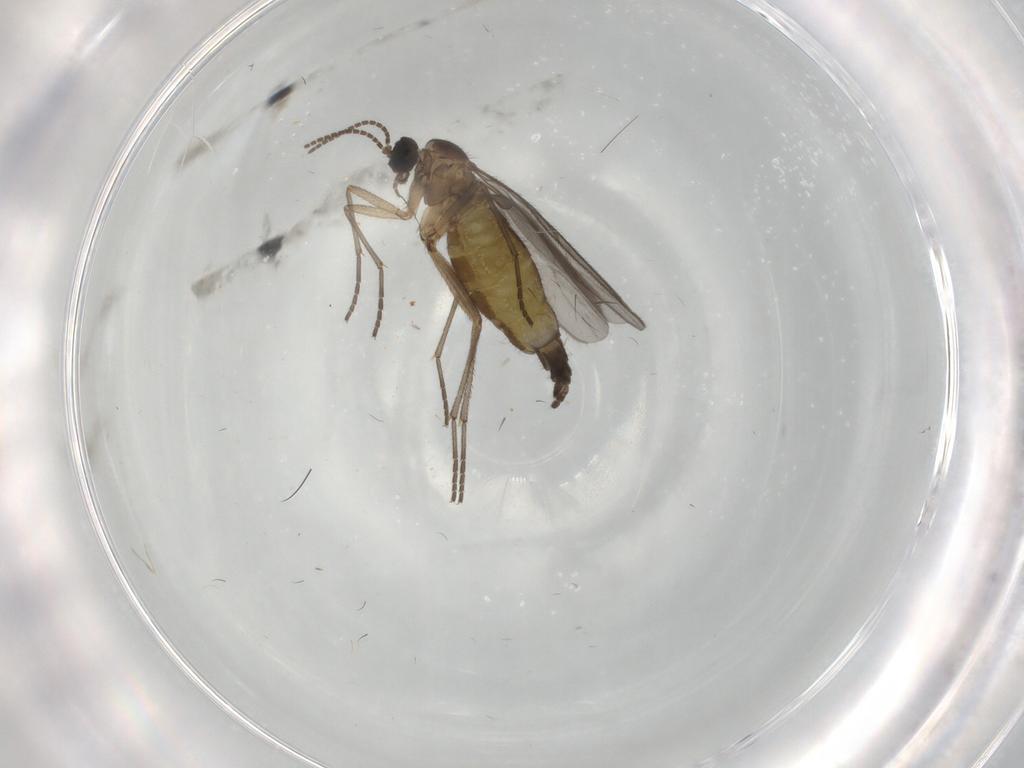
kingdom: Animalia
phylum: Arthropoda
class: Insecta
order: Diptera
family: Sciaridae
